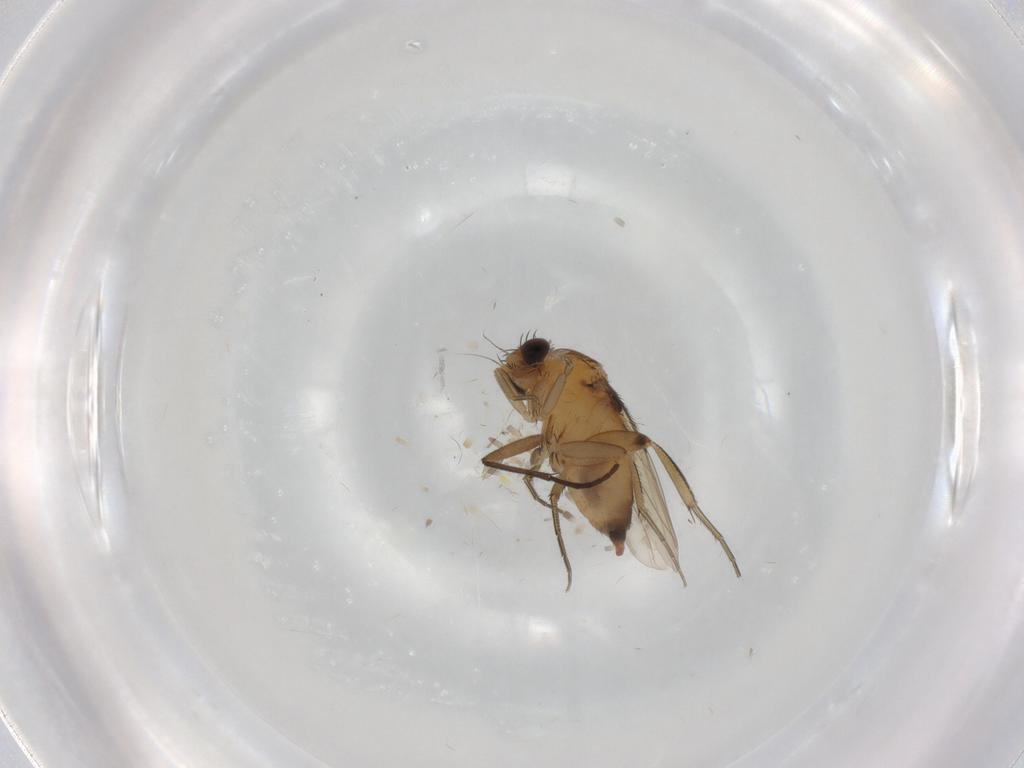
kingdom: Animalia
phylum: Arthropoda
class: Insecta
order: Diptera
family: Phoridae
